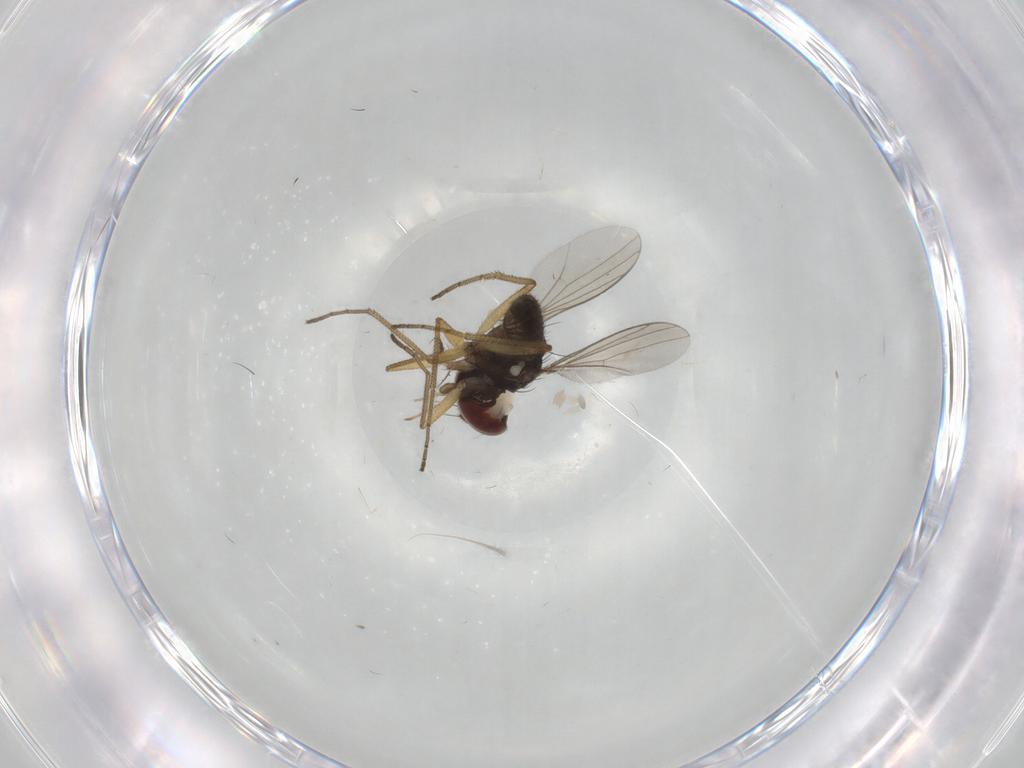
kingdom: Animalia
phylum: Arthropoda
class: Insecta
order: Diptera
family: Dolichopodidae
